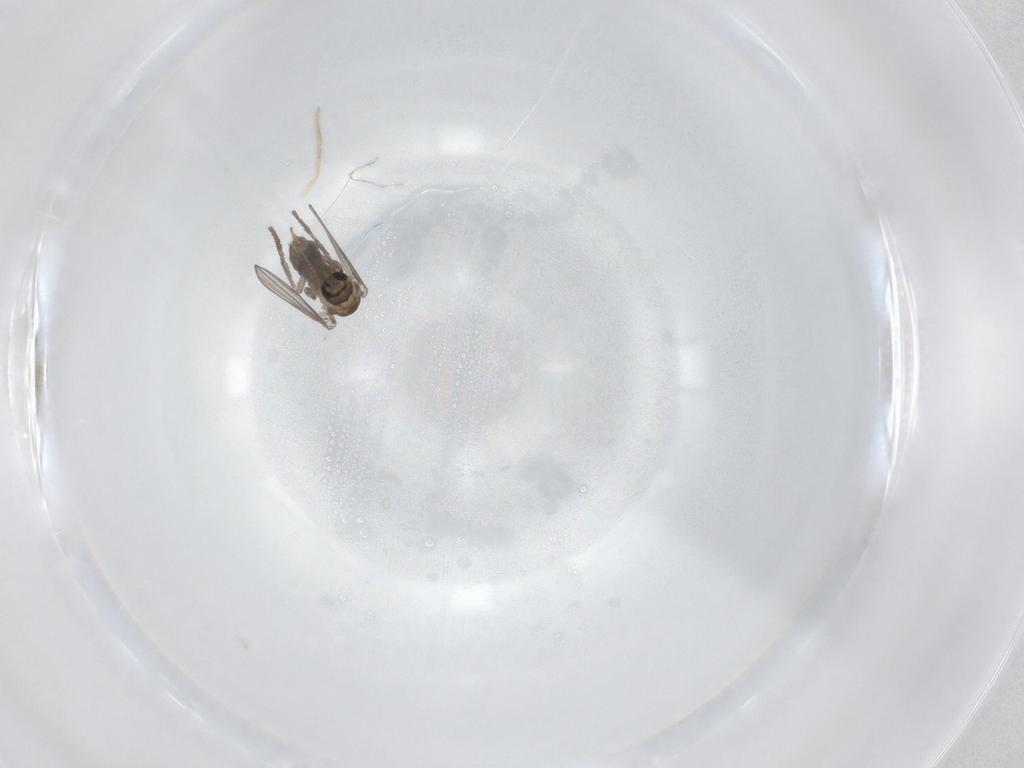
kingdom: Animalia
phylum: Arthropoda
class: Insecta
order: Diptera
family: Psychodidae
